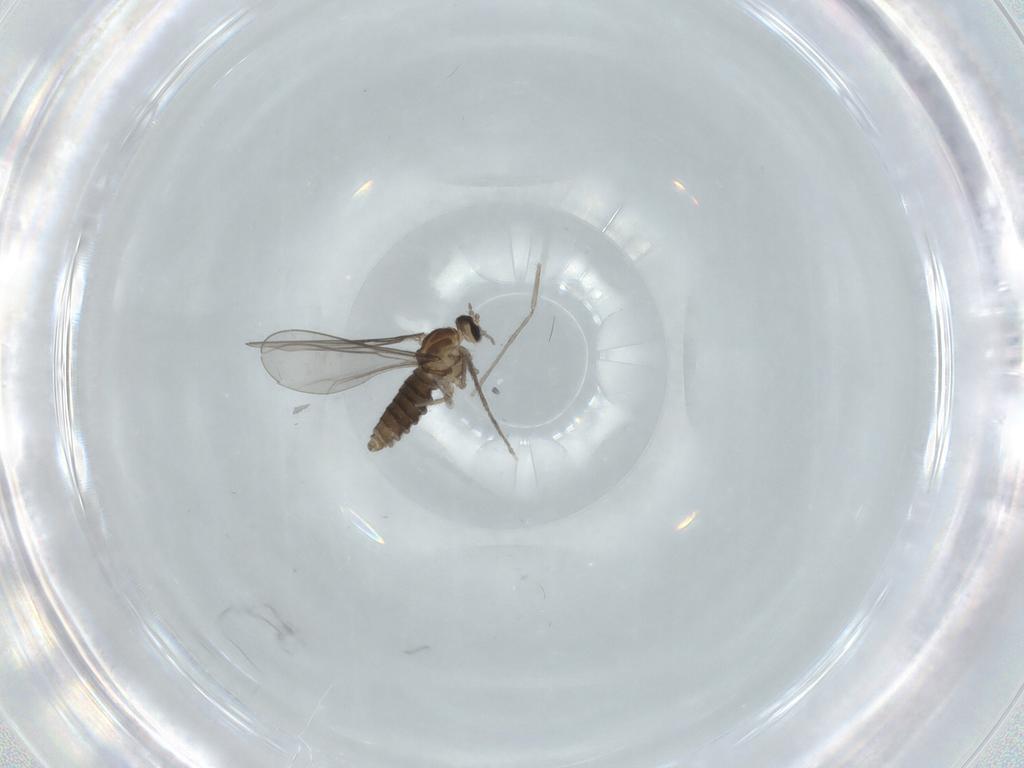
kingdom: Animalia
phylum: Arthropoda
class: Insecta
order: Diptera
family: Cecidomyiidae
